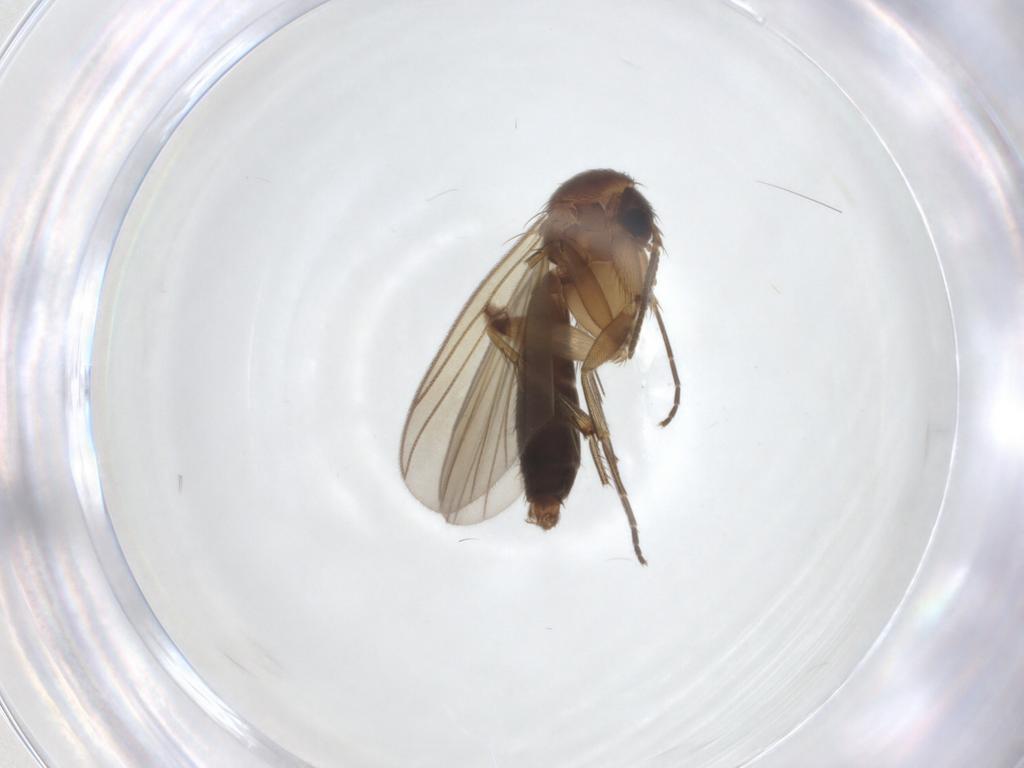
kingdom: Animalia
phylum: Arthropoda
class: Insecta
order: Diptera
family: Mycetophilidae
